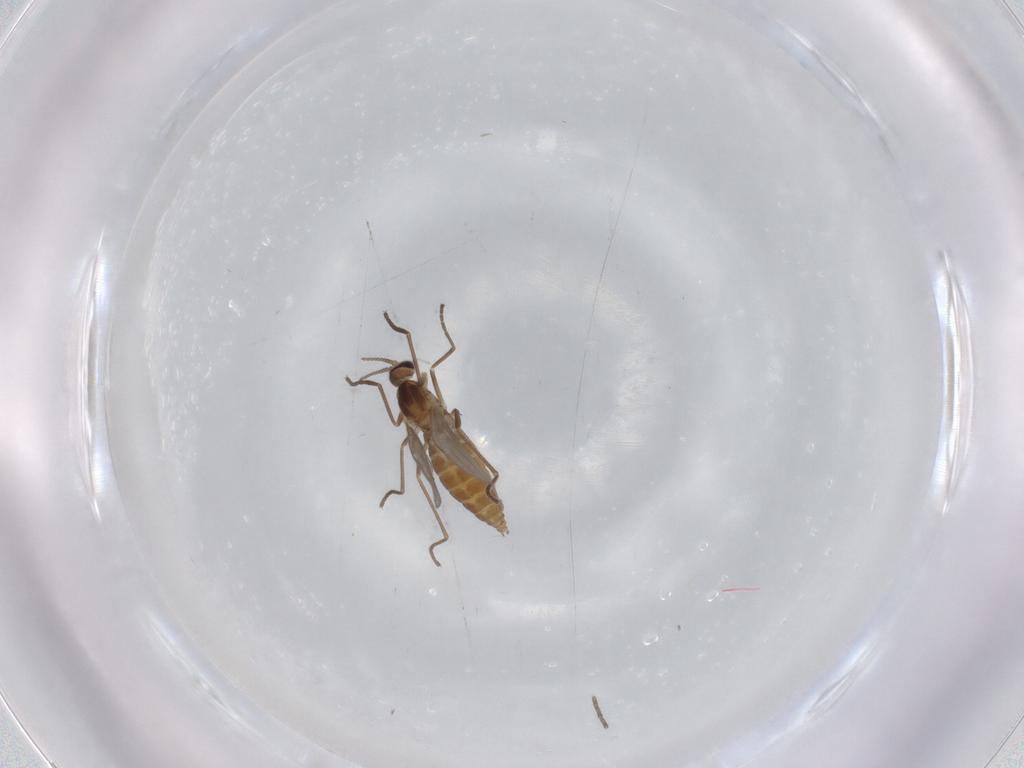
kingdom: Animalia
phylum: Arthropoda
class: Insecta
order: Diptera
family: Cecidomyiidae
